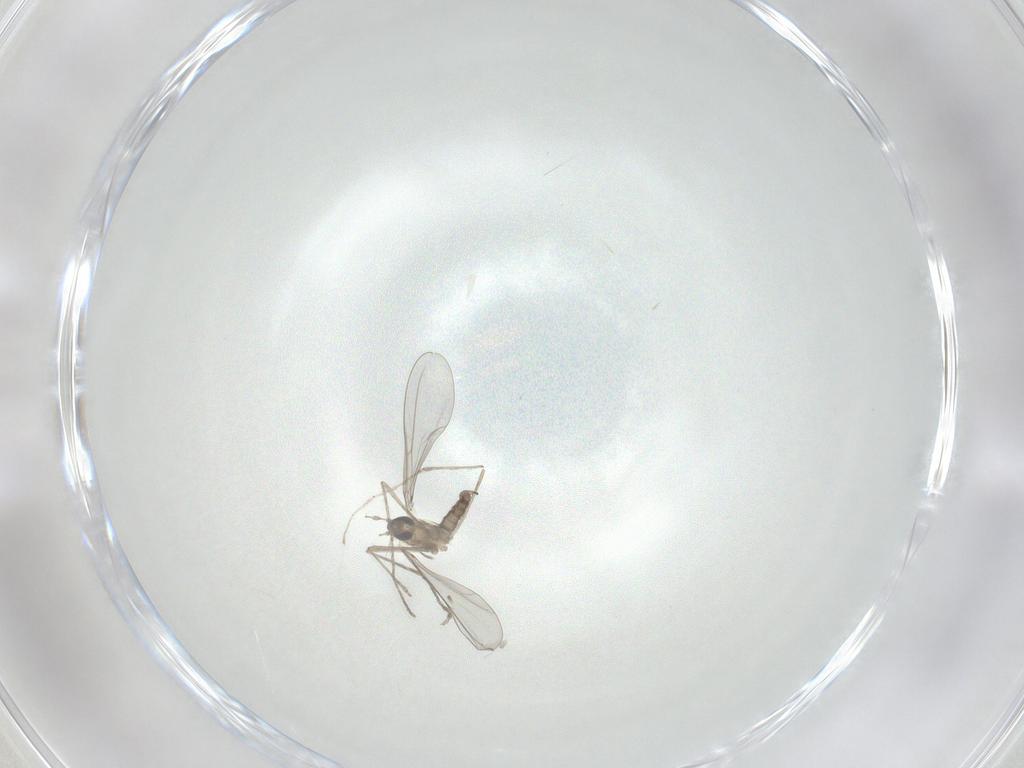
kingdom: Animalia
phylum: Arthropoda
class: Insecta
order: Diptera
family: Cecidomyiidae
